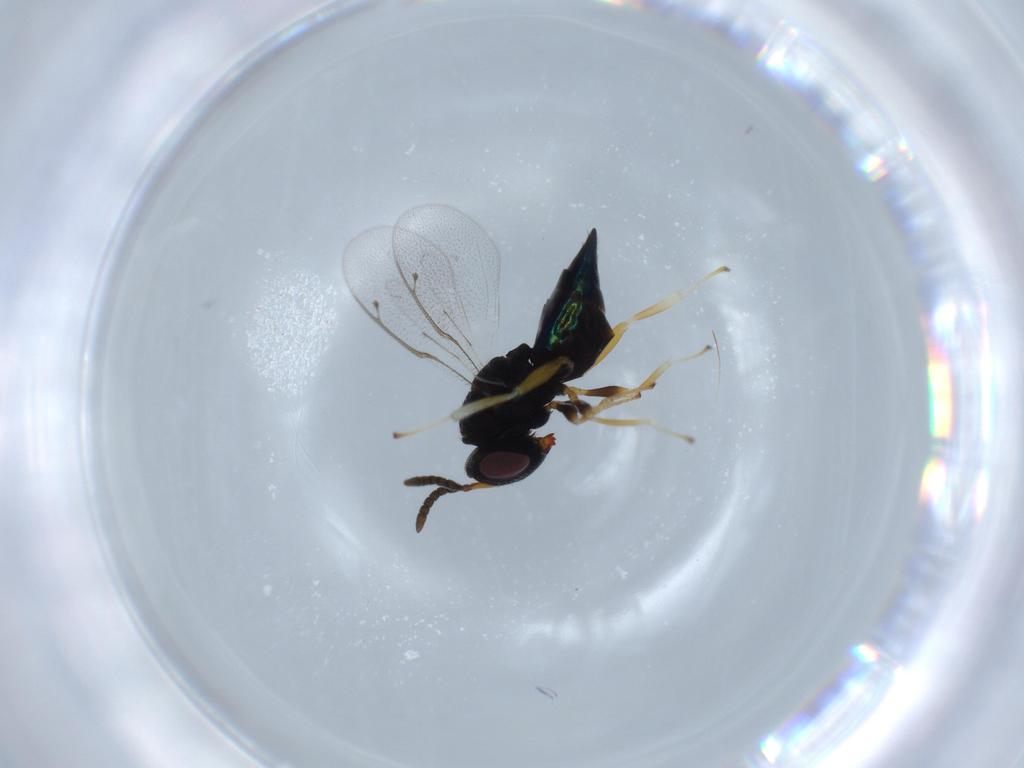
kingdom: Animalia
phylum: Arthropoda
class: Insecta
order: Hymenoptera
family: Pteromalidae
